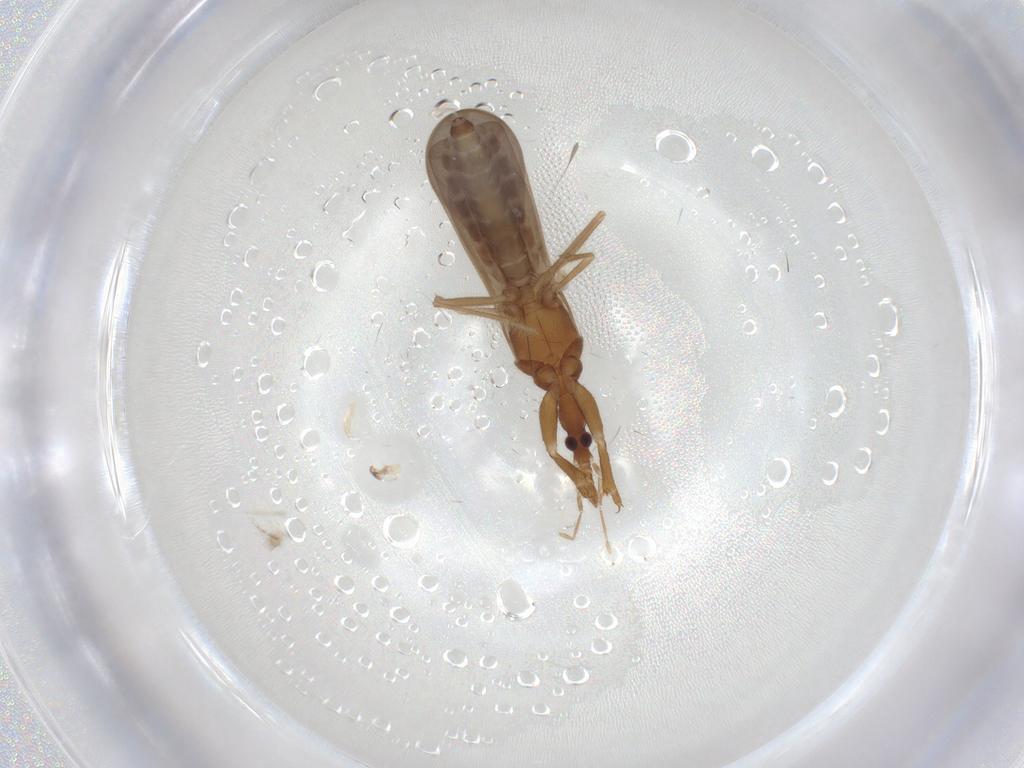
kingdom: Animalia
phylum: Arthropoda
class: Insecta
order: Hemiptera
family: Enicocephalidae
